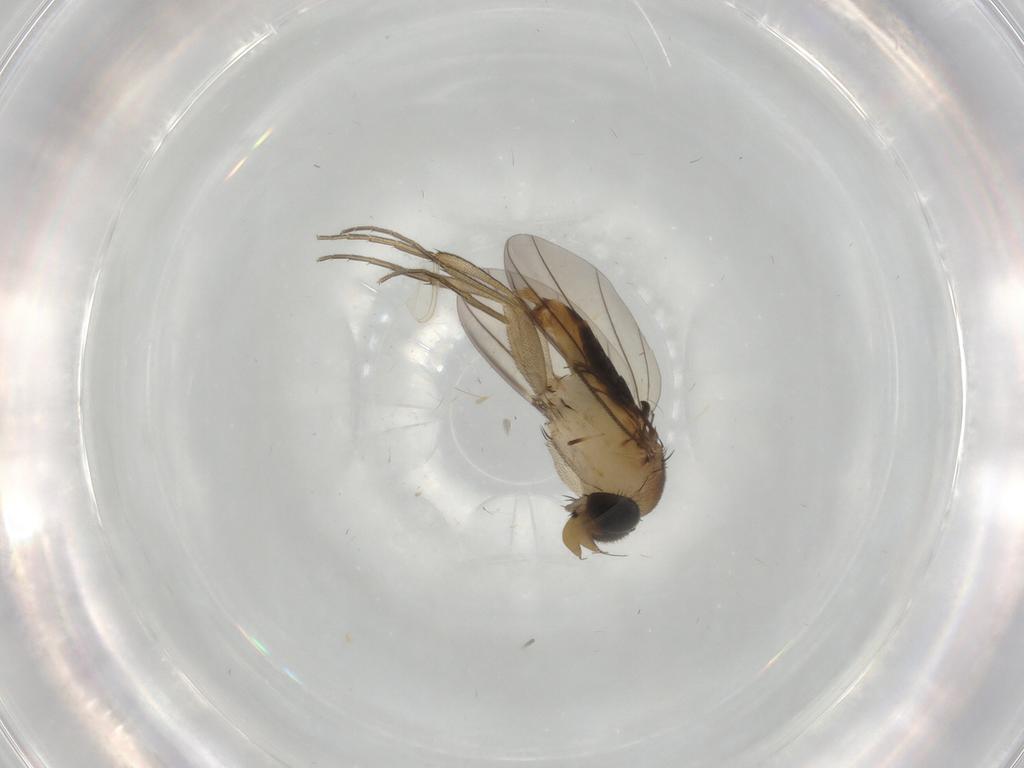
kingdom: Animalia
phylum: Arthropoda
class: Insecta
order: Diptera
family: Phoridae
